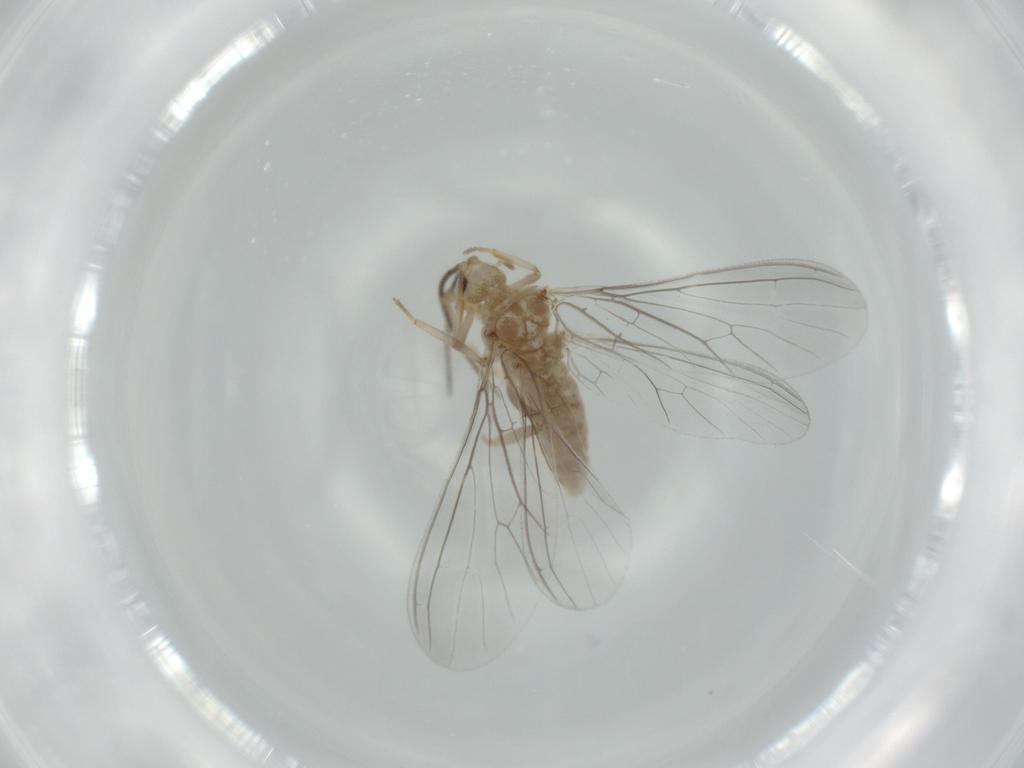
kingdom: Animalia
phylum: Arthropoda
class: Insecta
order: Neuroptera
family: Coniopterygidae
